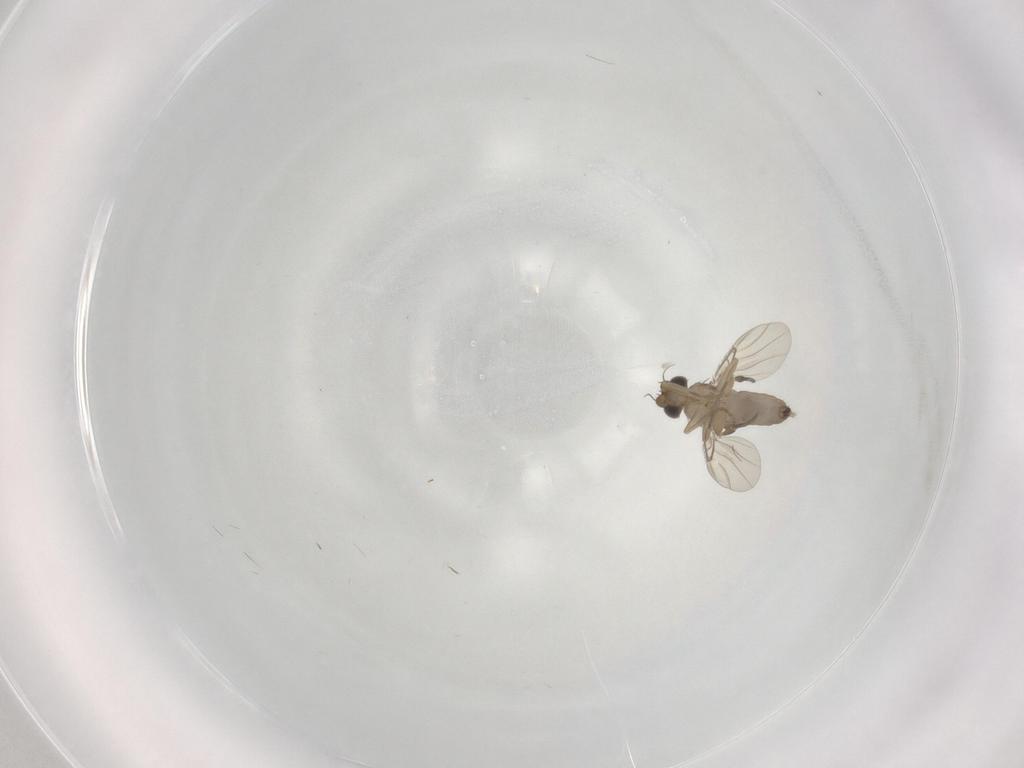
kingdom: Animalia
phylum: Arthropoda
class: Insecta
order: Diptera
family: Phoridae
